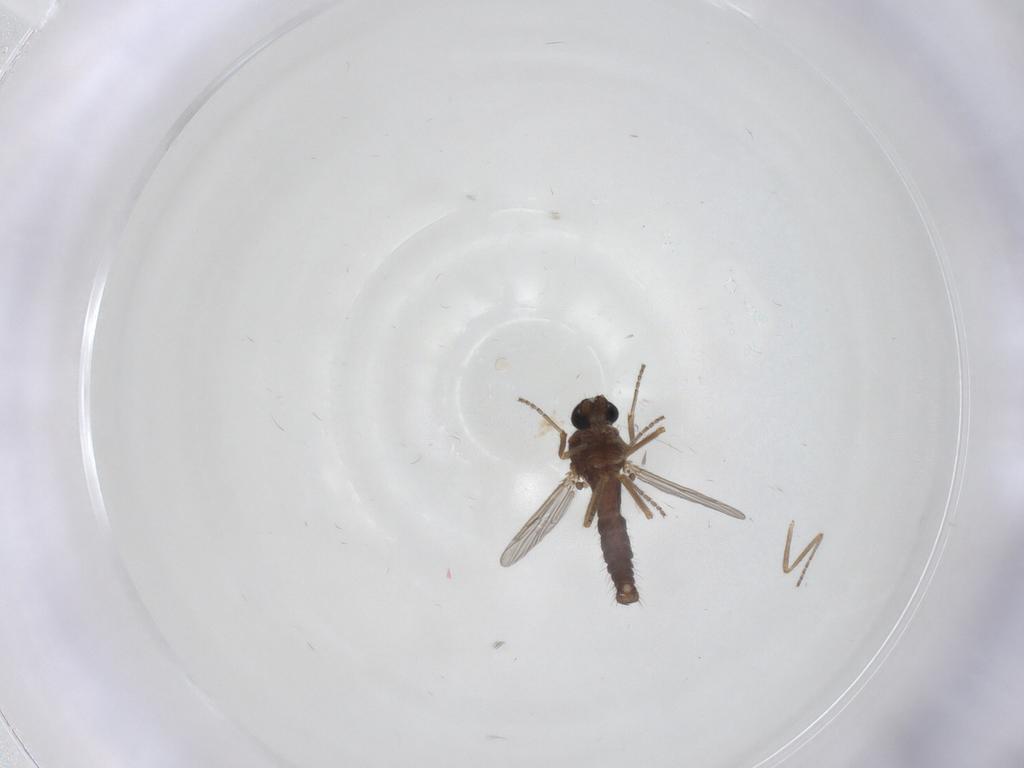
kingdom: Animalia
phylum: Arthropoda
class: Insecta
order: Diptera
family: Ceratopogonidae
